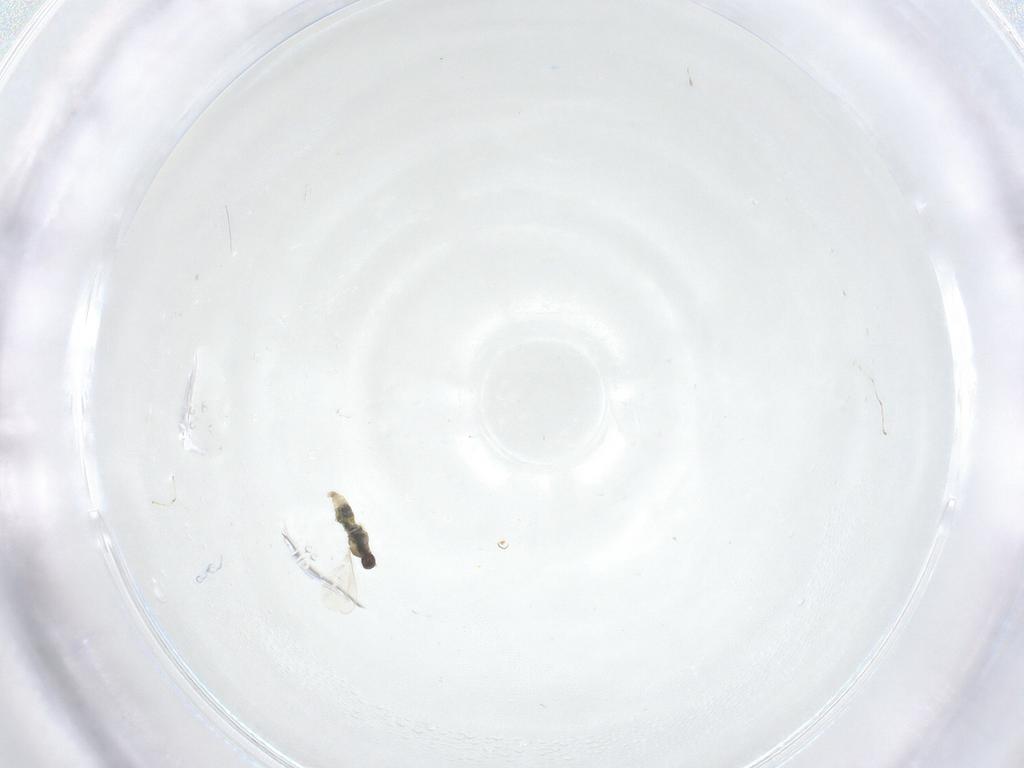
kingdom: Animalia
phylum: Arthropoda
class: Insecta
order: Diptera
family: Cecidomyiidae
